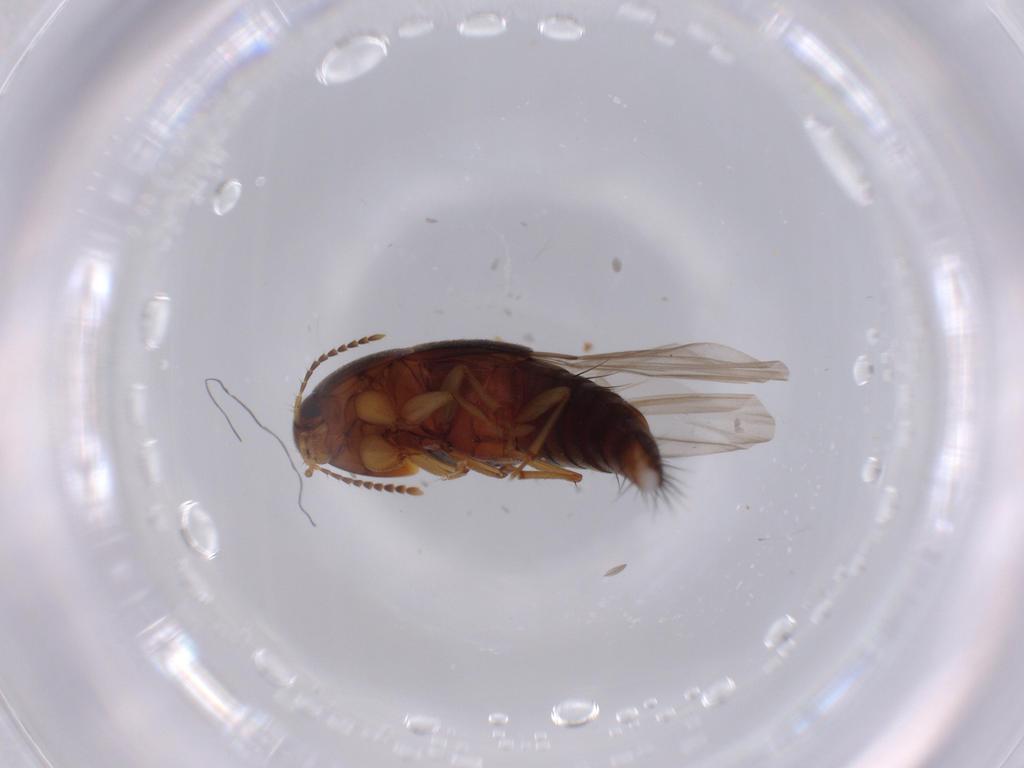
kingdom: Animalia
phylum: Arthropoda
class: Insecta
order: Coleoptera
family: Staphylinidae
